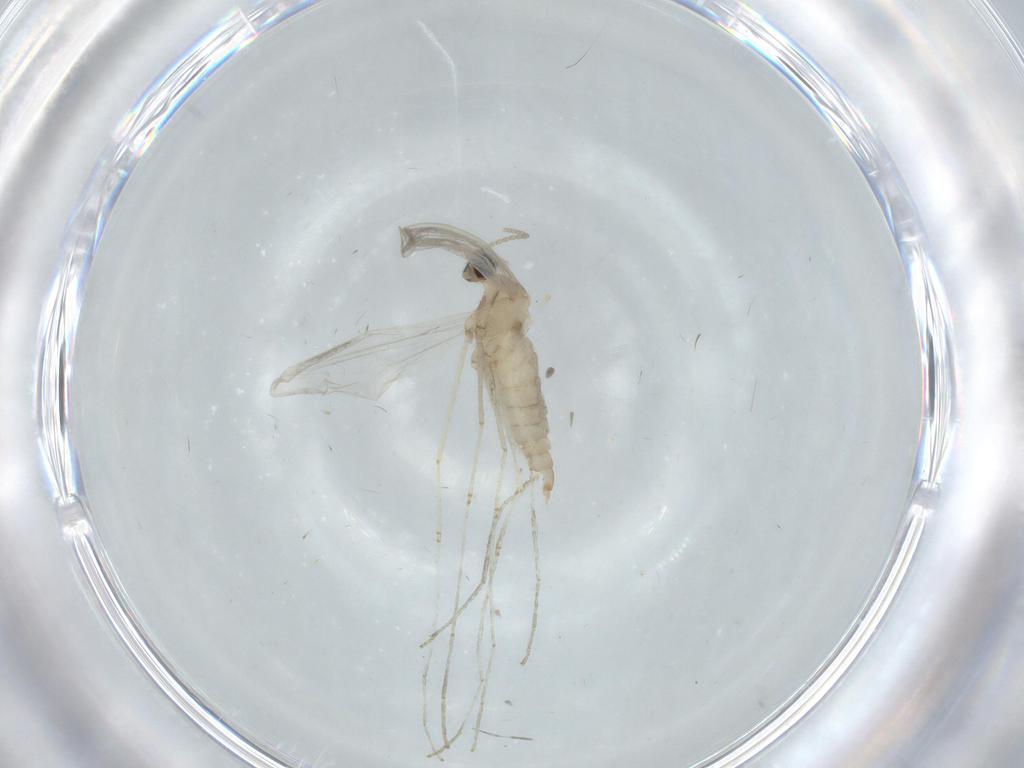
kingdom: Animalia
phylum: Arthropoda
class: Insecta
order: Diptera
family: Cecidomyiidae
